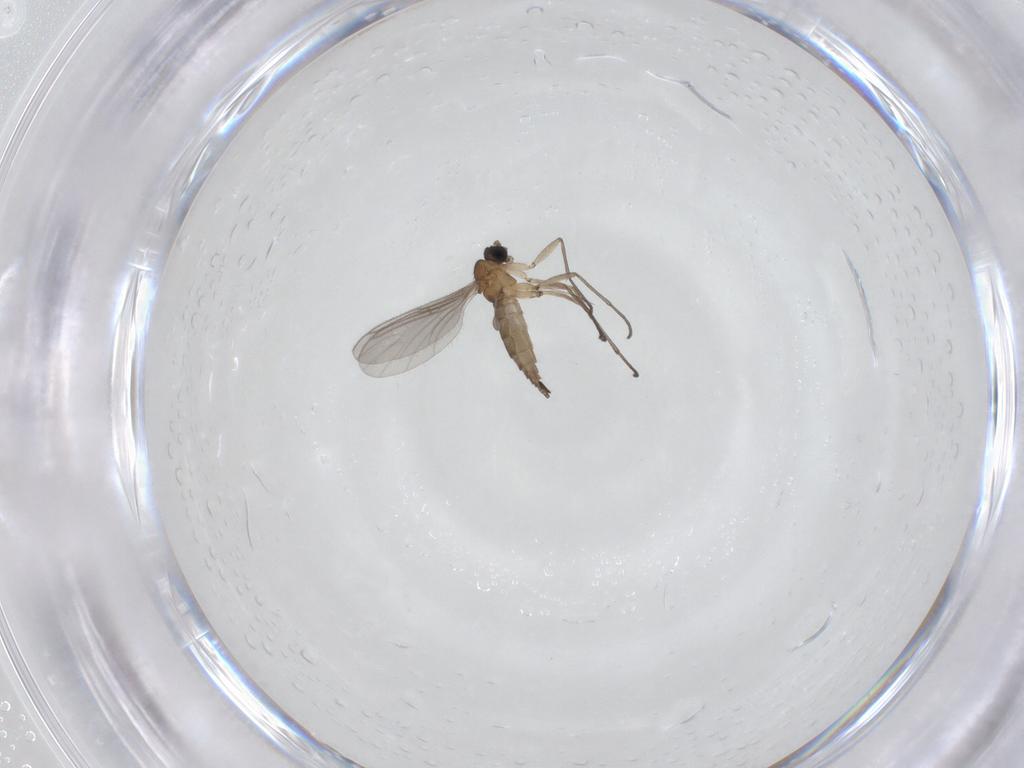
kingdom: Animalia
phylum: Arthropoda
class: Insecta
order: Diptera
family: Sciaridae
